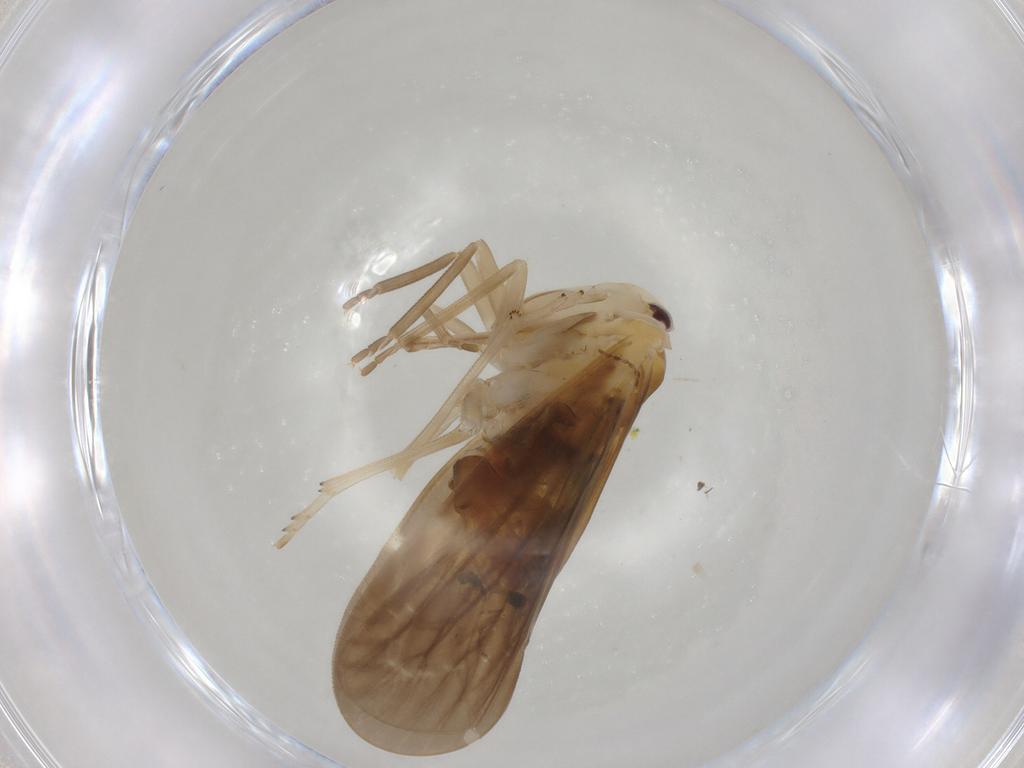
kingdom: Animalia
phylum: Arthropoda
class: Insecta
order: Hemiptera
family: Derbidae
